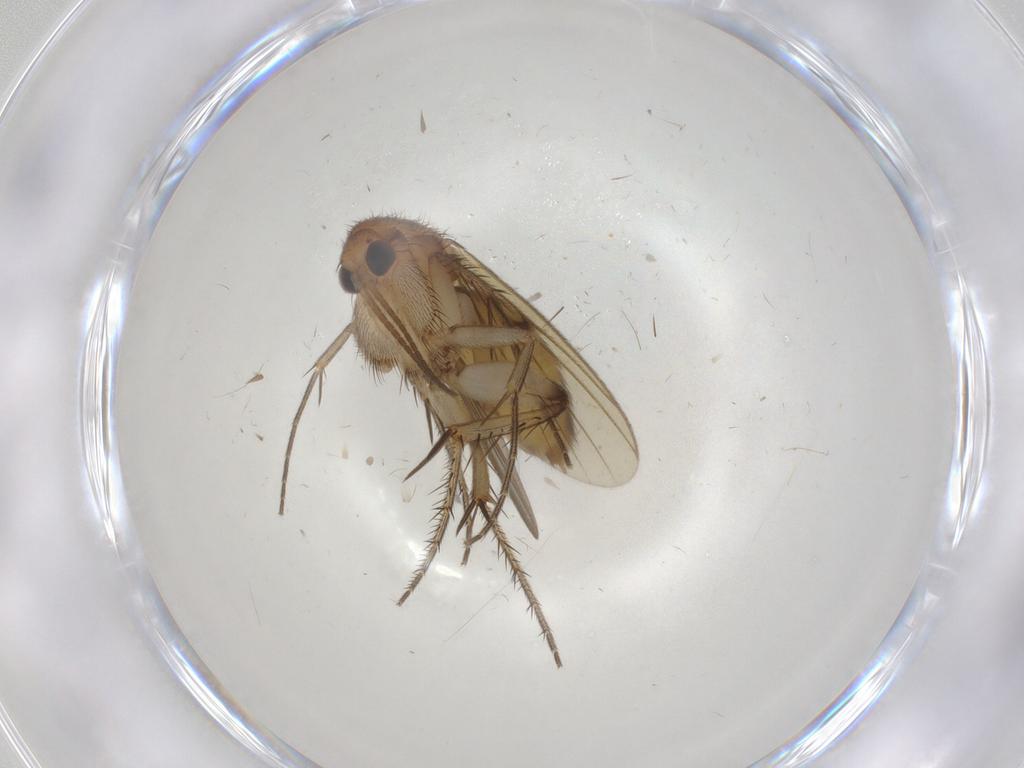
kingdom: Animalia
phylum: Arthropoda
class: Insecta
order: Diptera
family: Mycetophilidae
